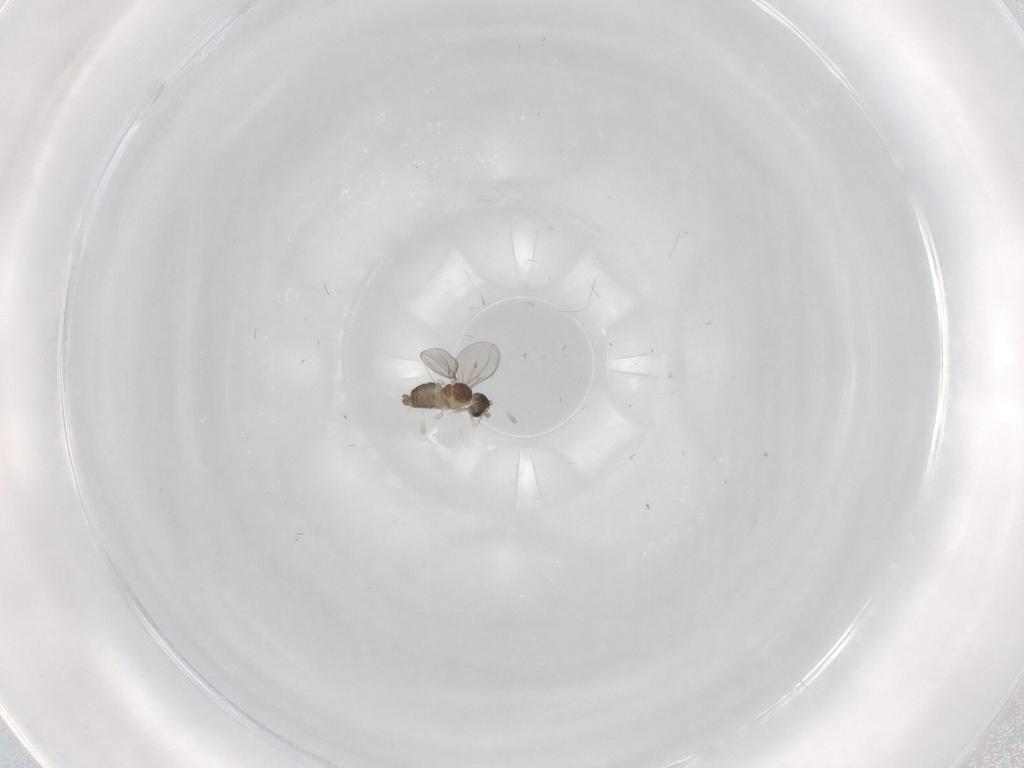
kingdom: Animalia
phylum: Arthropoda
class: Insecta
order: Diptera
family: Cecidomyiidae
